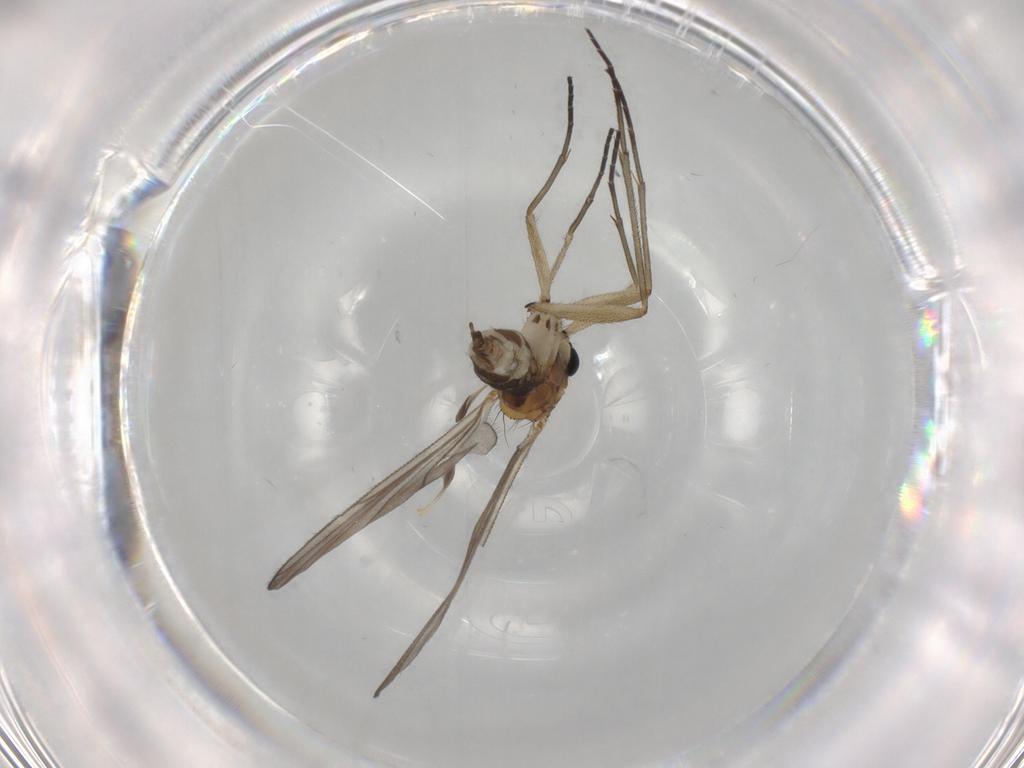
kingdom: Animalia
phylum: Arthropoda
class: Insecta
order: Diptera
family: Sciaridae
